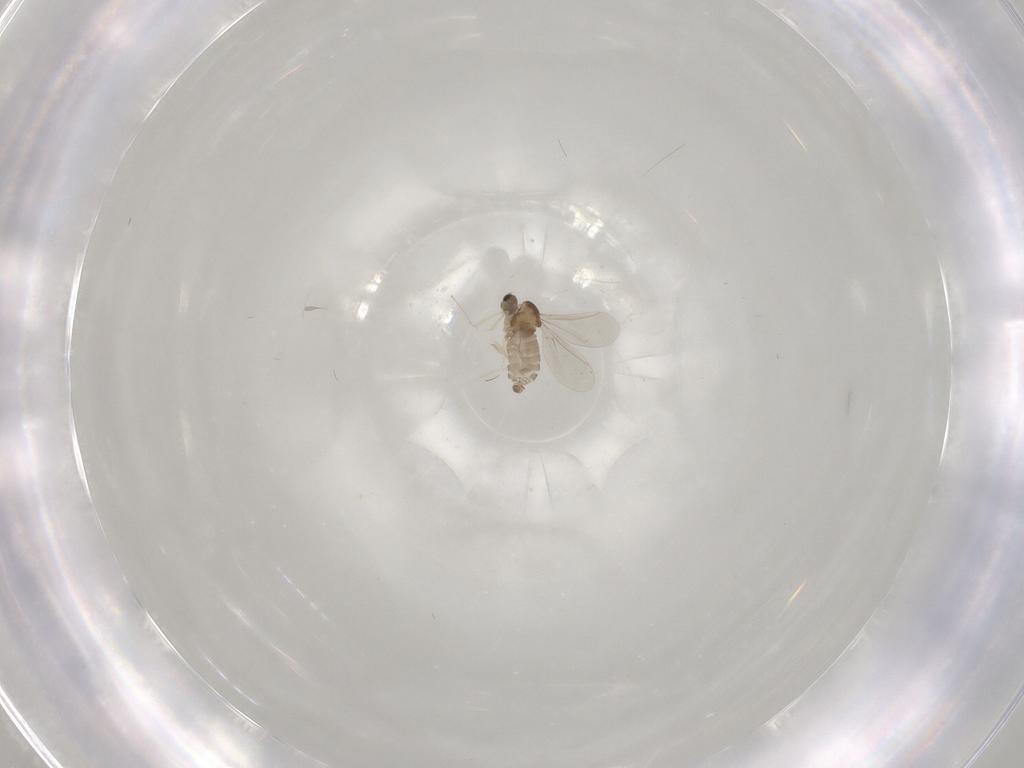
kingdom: Animalia
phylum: Arthropoda
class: Insecta
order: Diptera
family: Cecidomyiidae
